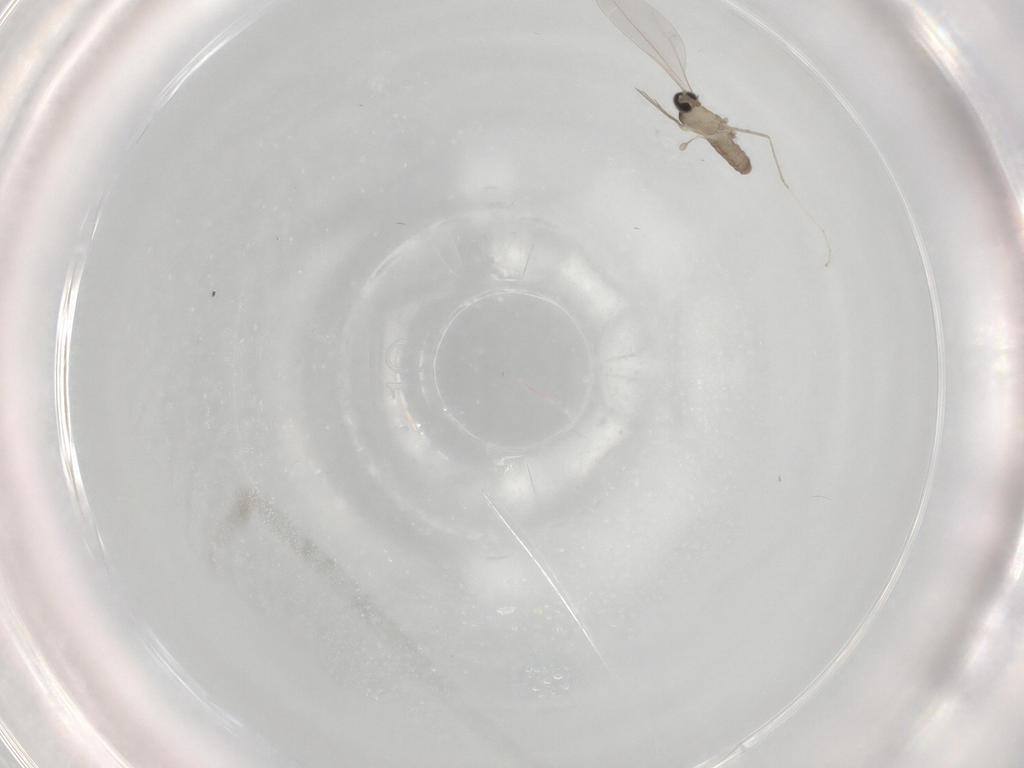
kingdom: Animalia
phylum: Arthropoda
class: Insecta
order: Diptera
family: Cecidomyiidae
